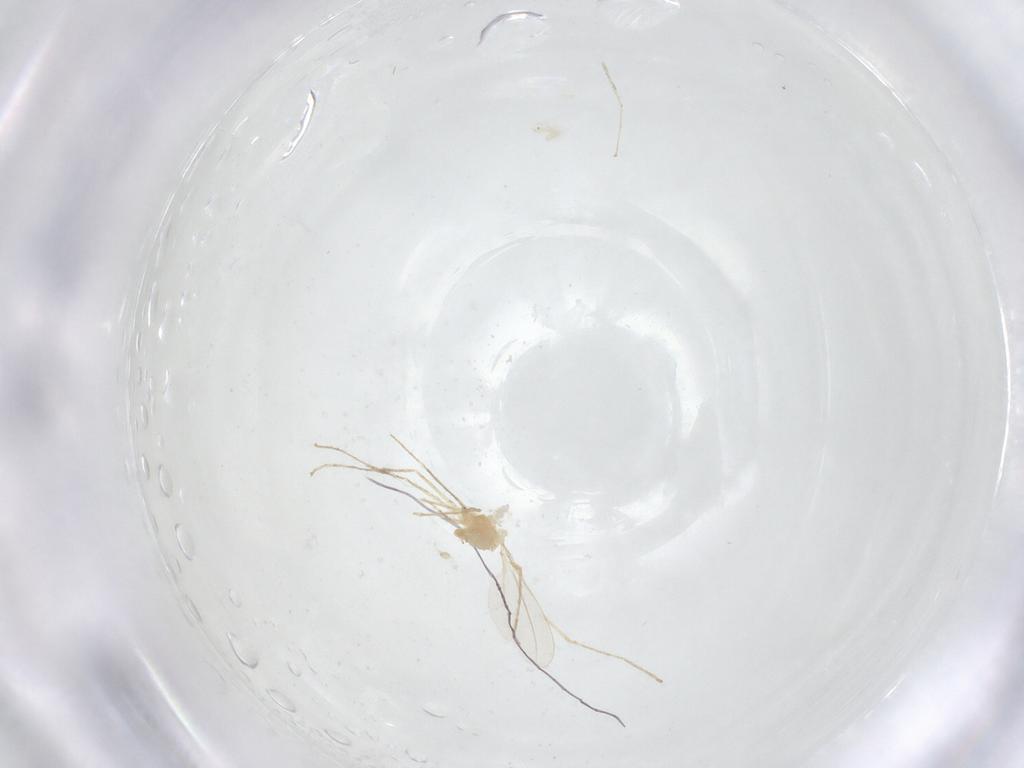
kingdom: Animalia
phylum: Arthropoda
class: Insecta
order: Diptera
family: Cecidomyiidae
